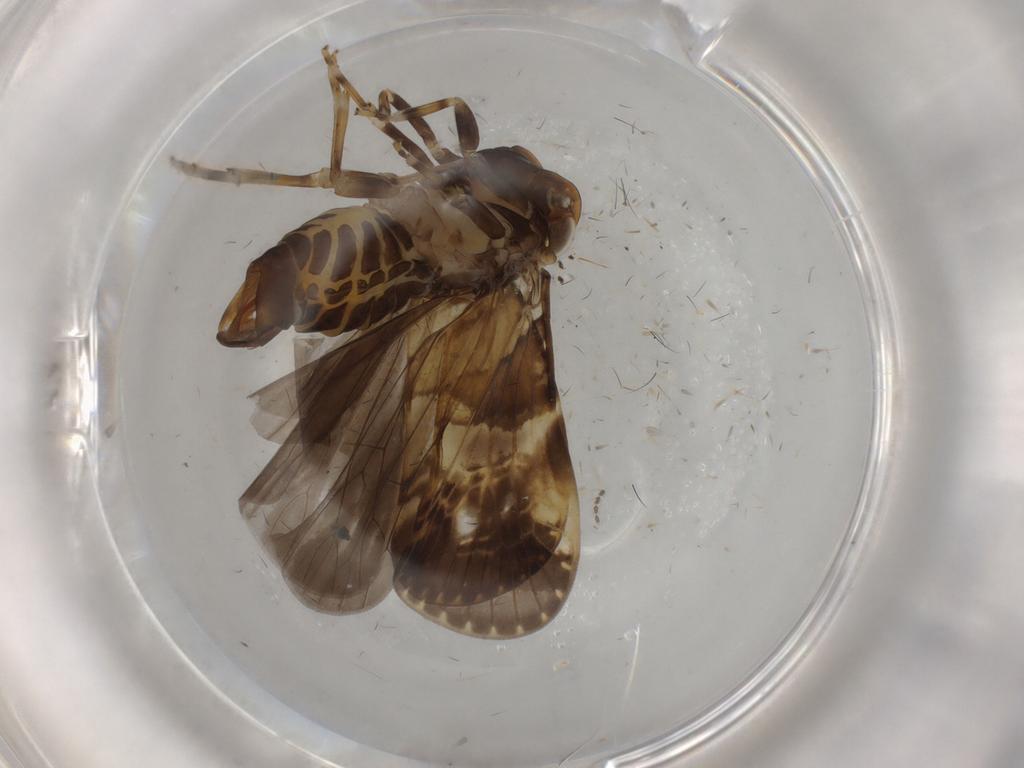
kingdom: Animalia
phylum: Arthropoda
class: Insecta
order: Hemiptera
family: Cixiidae
